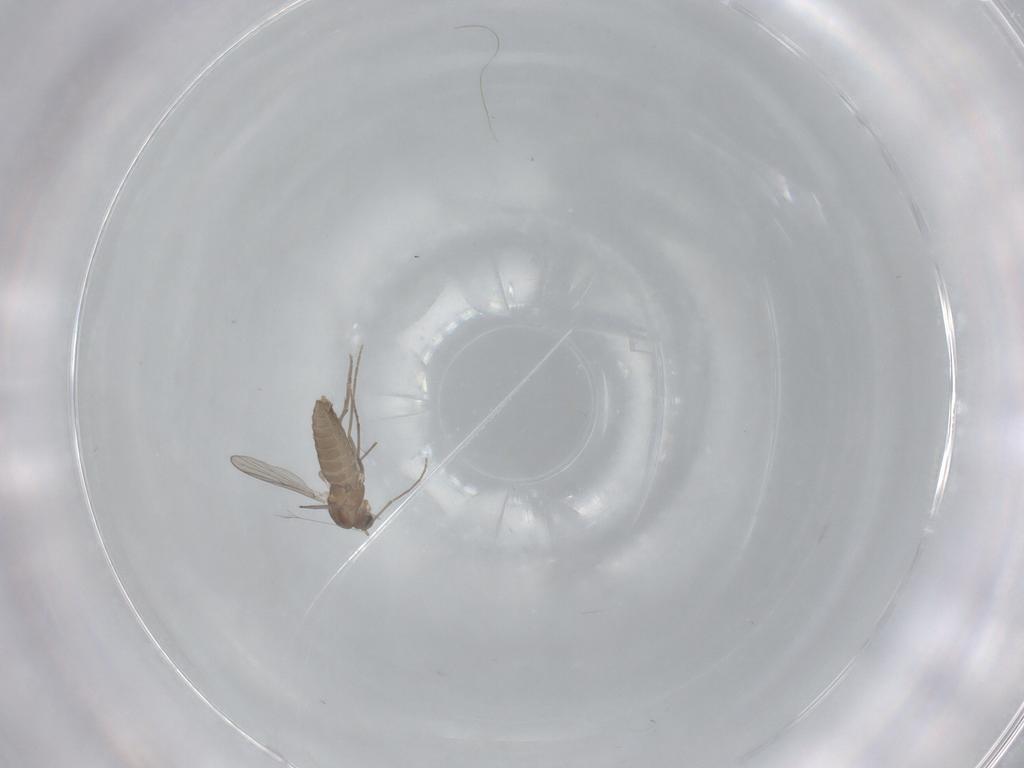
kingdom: Animalia
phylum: Arthropoda
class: Insecta
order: Diptera
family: Chironomidae
